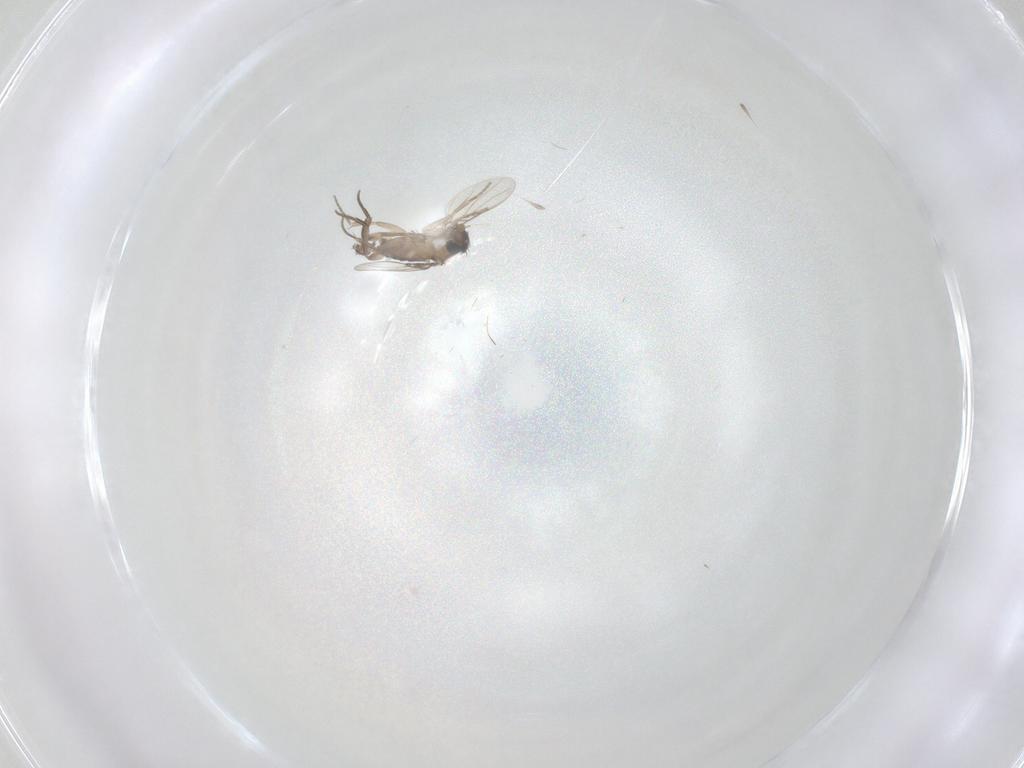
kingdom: Animalia
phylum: Arthropoda
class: Insecta
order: Diptera
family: Phoridae
